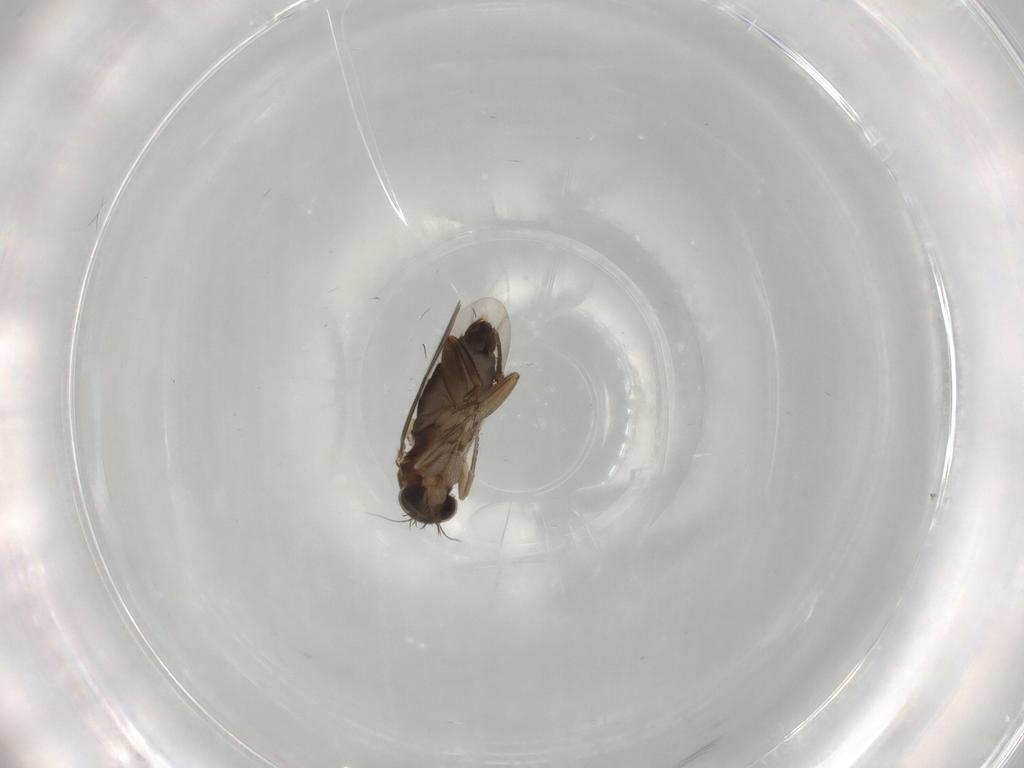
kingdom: Animalia
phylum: Arthropoda
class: Insecta
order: Diptera
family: Phoridae
